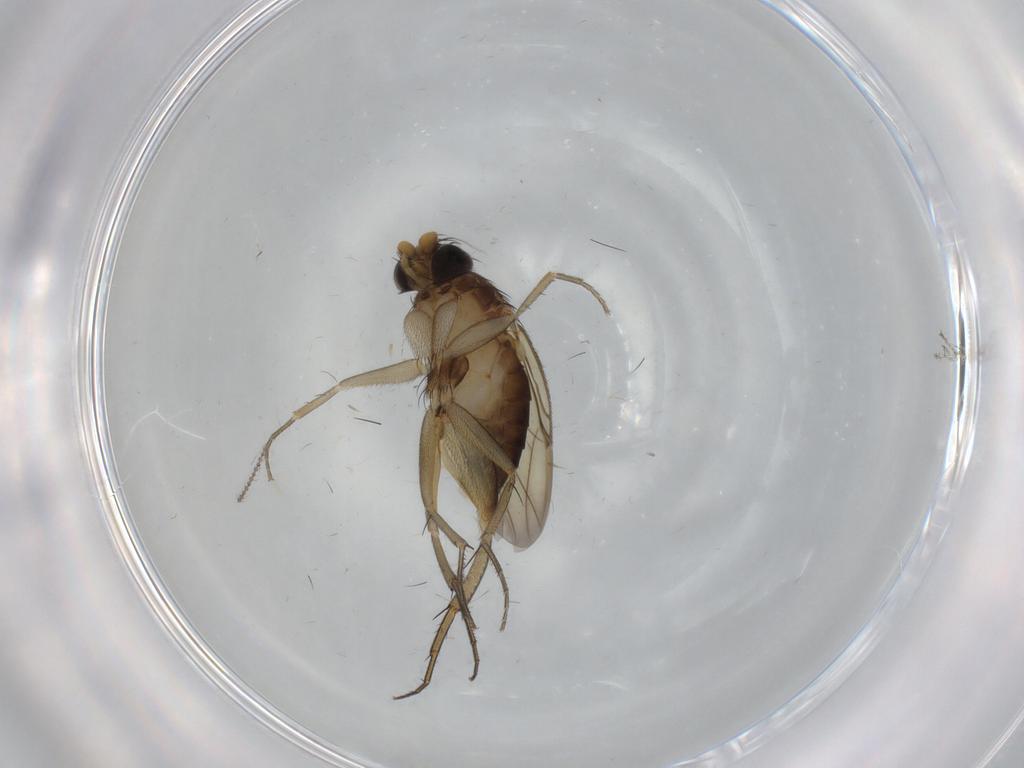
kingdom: Animalia
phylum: Arthropoda
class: Insecta
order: Diptera
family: Phoridae
